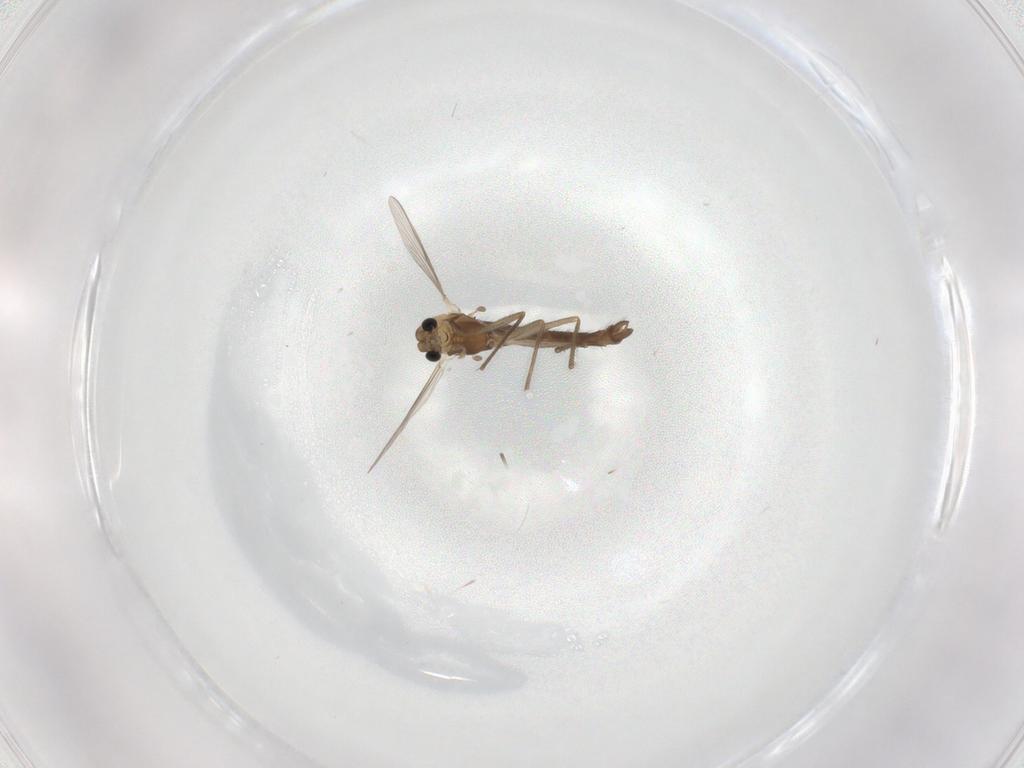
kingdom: Animalia
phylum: Arthropoda
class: Insecta
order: Diptera
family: Chironomidae
